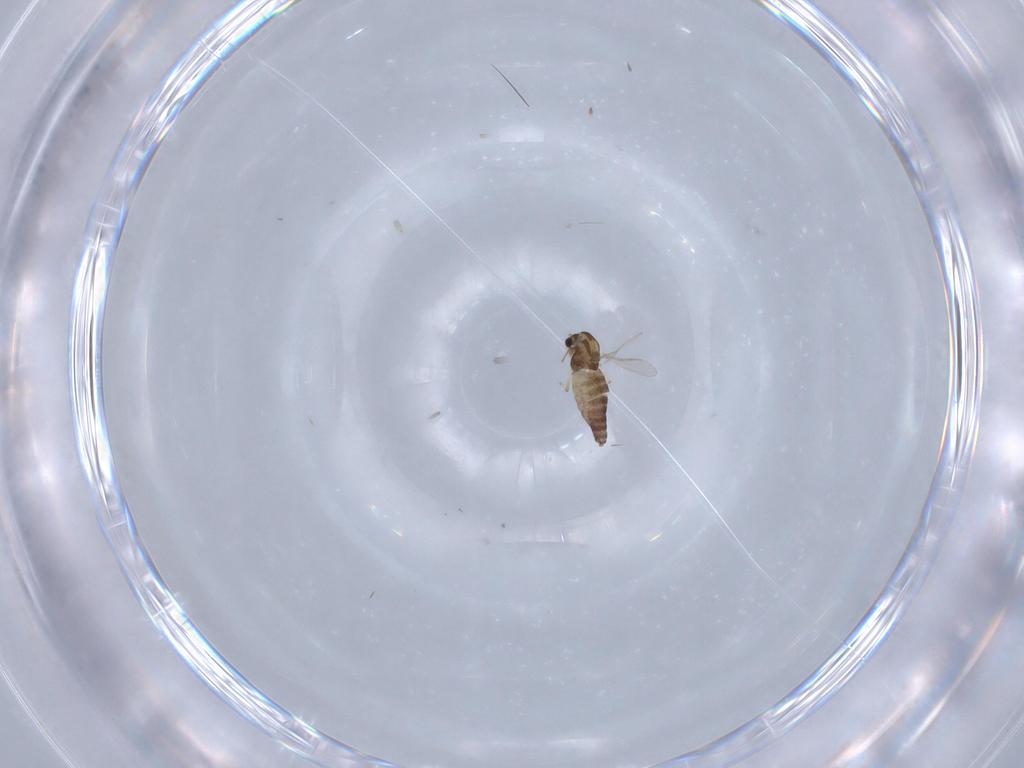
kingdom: Animalia
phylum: Arthropoda
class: Insecta
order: Diptera
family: Chironomidae
